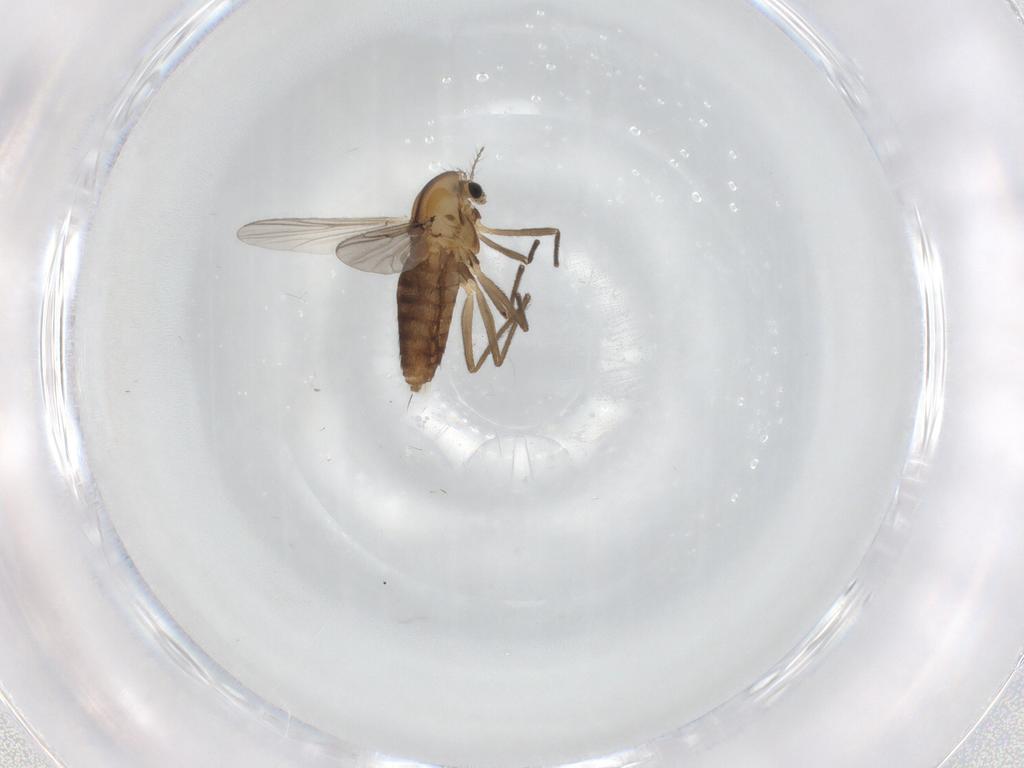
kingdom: Animalia
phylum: Arthropoda
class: Insecta
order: Diptera
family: Chironomidae
